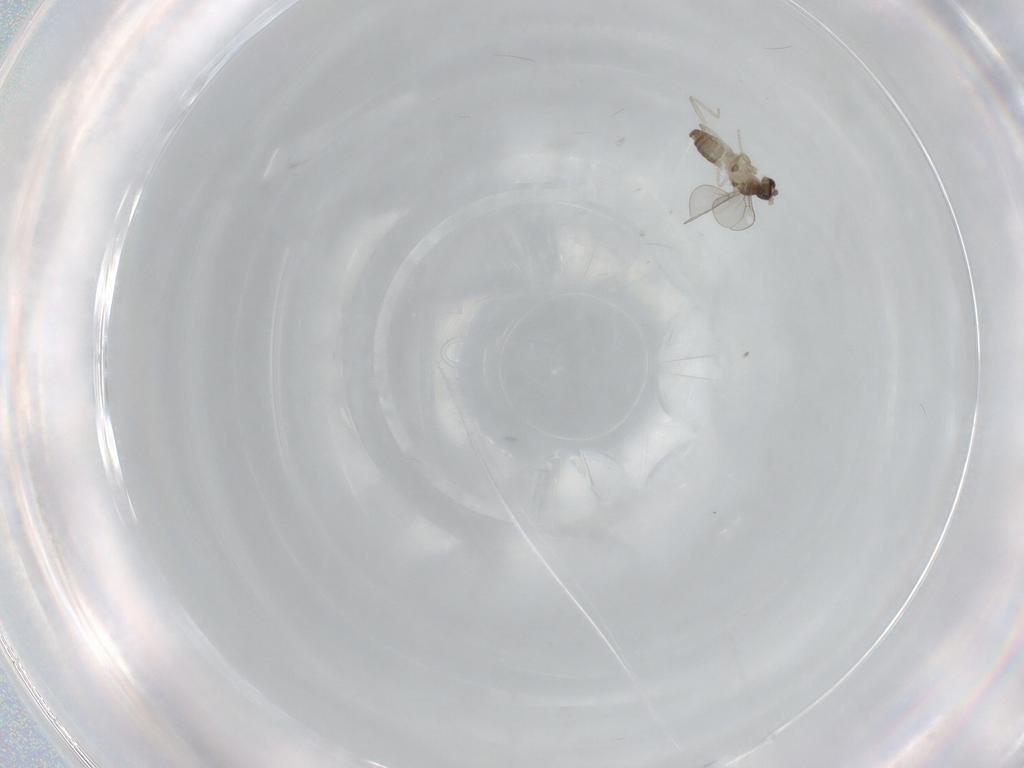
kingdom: Animalia
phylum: Arthropoda
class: Insecta
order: Diptera
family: Cecidomyiidae
